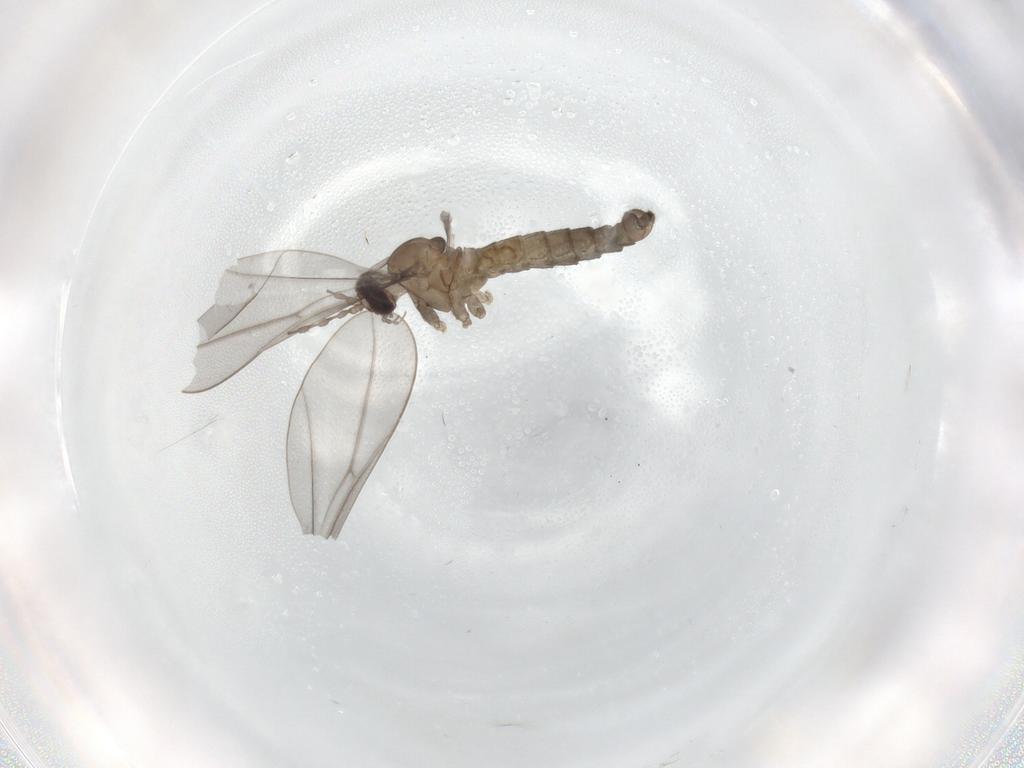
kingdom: Animalia
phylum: Arthropoda
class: Insecta
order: Diptera
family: Cecidomyiidae
